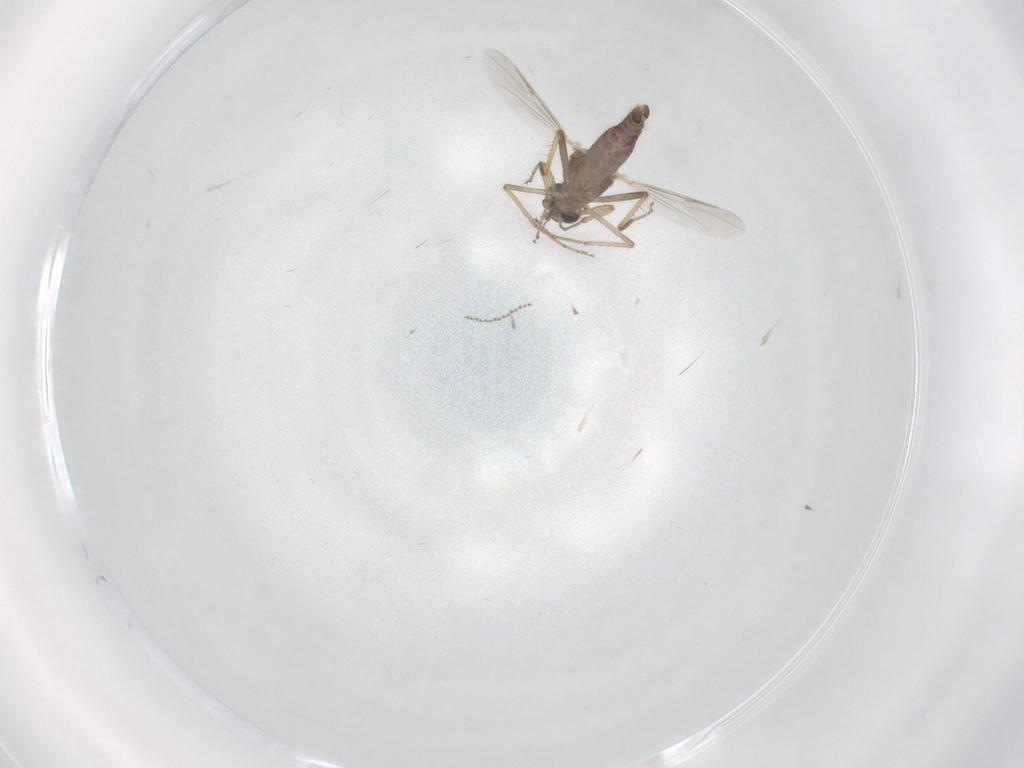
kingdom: Animalia
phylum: Arthropoda
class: Insecta
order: Diptera
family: Ceratopogonidae
